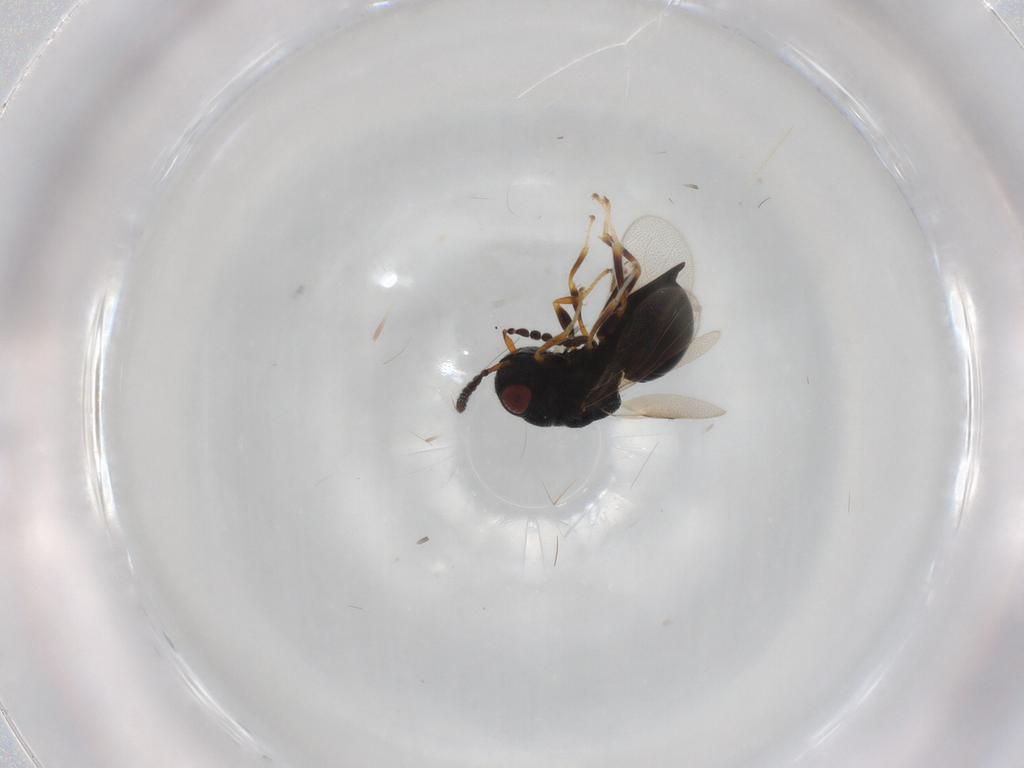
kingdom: Animalia
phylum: Arthropoda
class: Insecta
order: Hymenoptera
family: Eurytomidae
